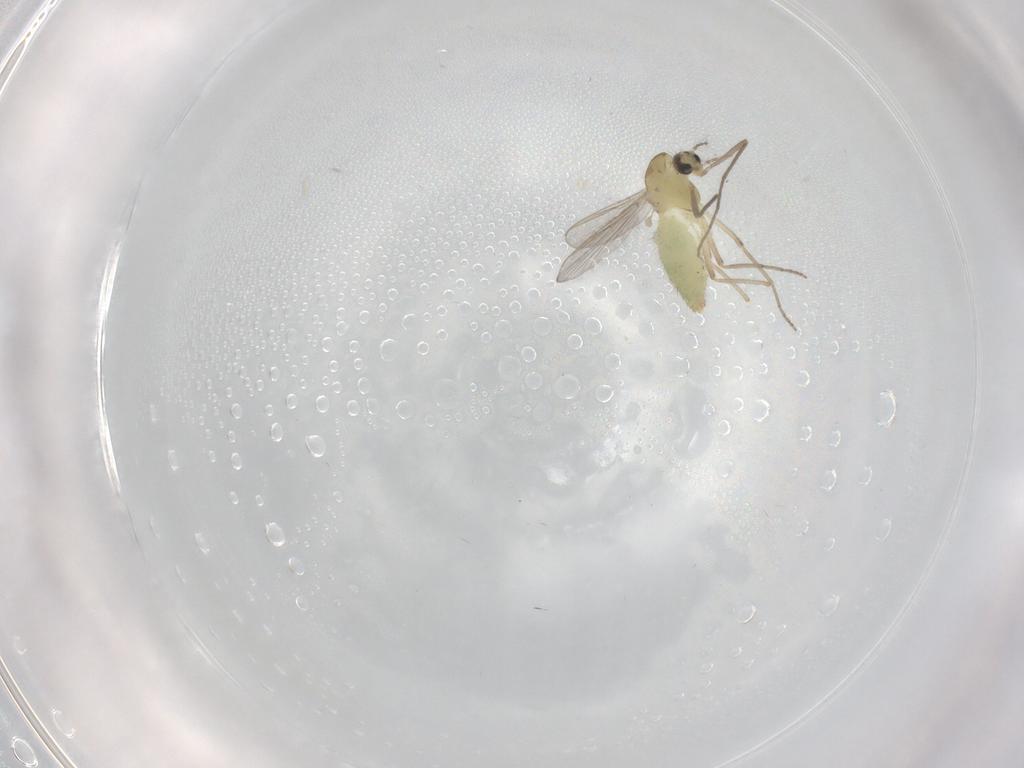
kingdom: Animalia
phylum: Arthropoda
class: Insecta
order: Diptera
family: Chironomidae
